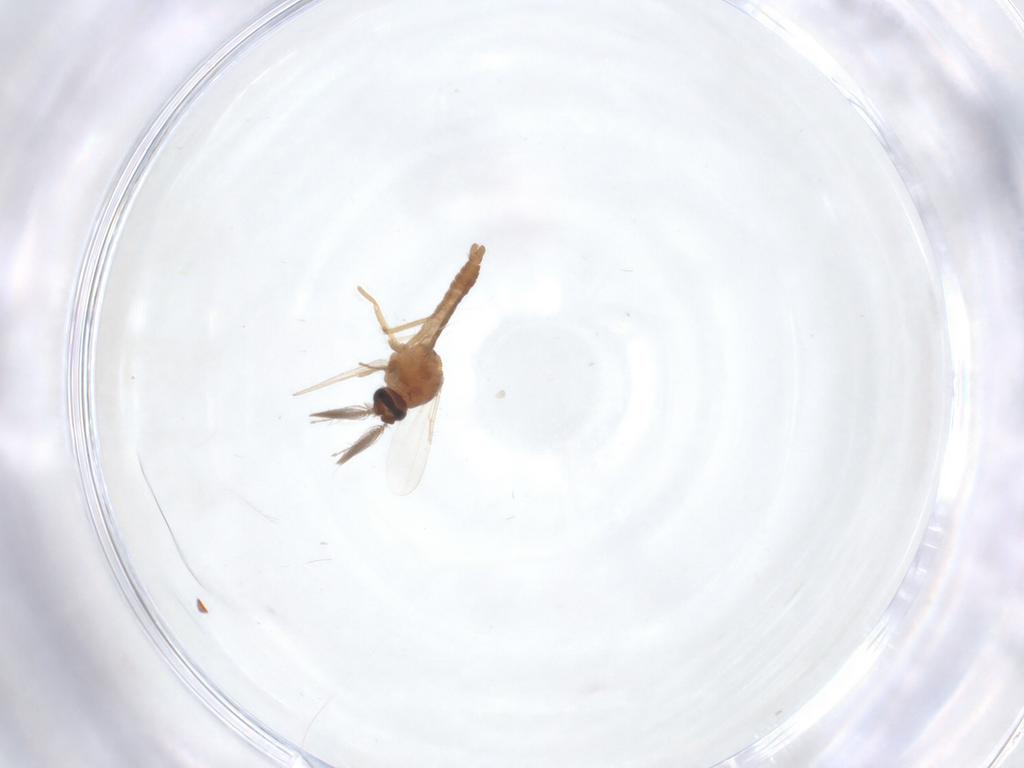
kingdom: Animalia
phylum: Arthropoda
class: Insecta
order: Diptera
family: Ceratopogonidae
